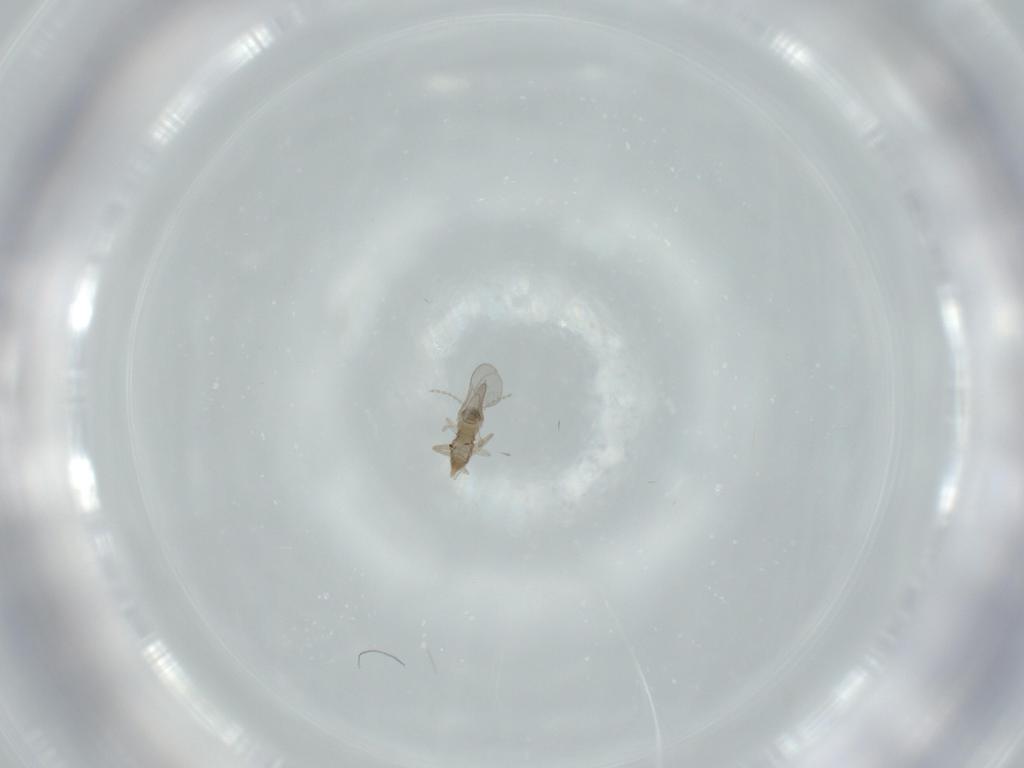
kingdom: Animalia
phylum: Arthropoda
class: Insecta
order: Diptera
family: Cecidomyiidae
